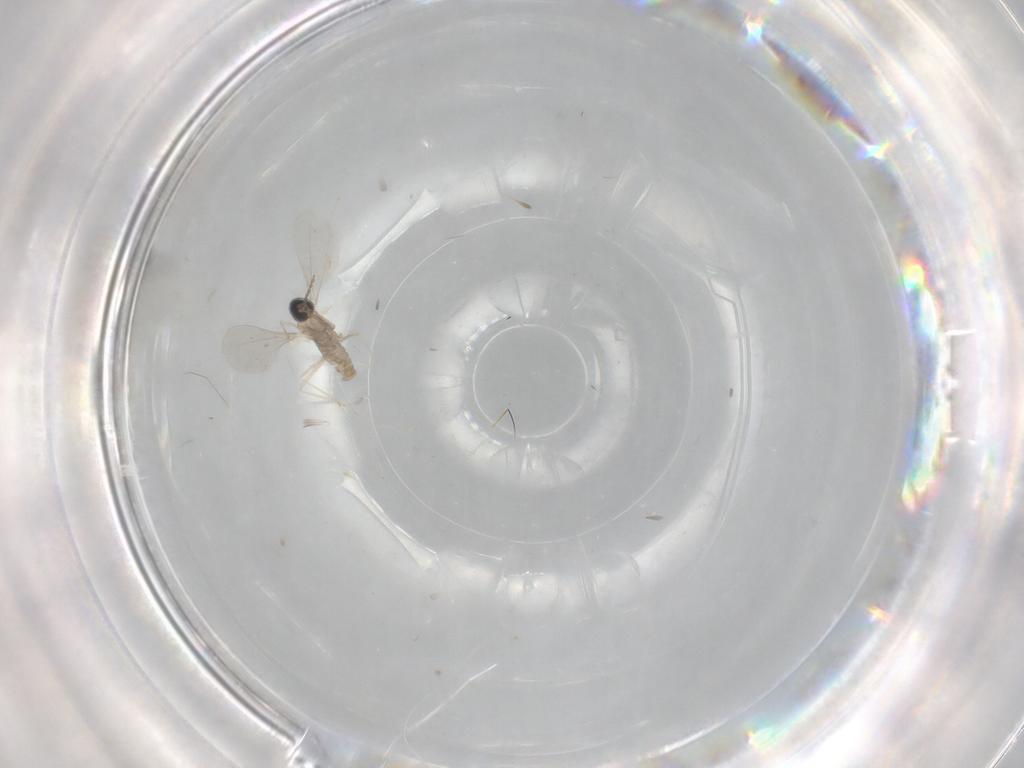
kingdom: Animalia
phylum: Arthropoda
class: Insecta
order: Diptera
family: Cecidomyiidae
